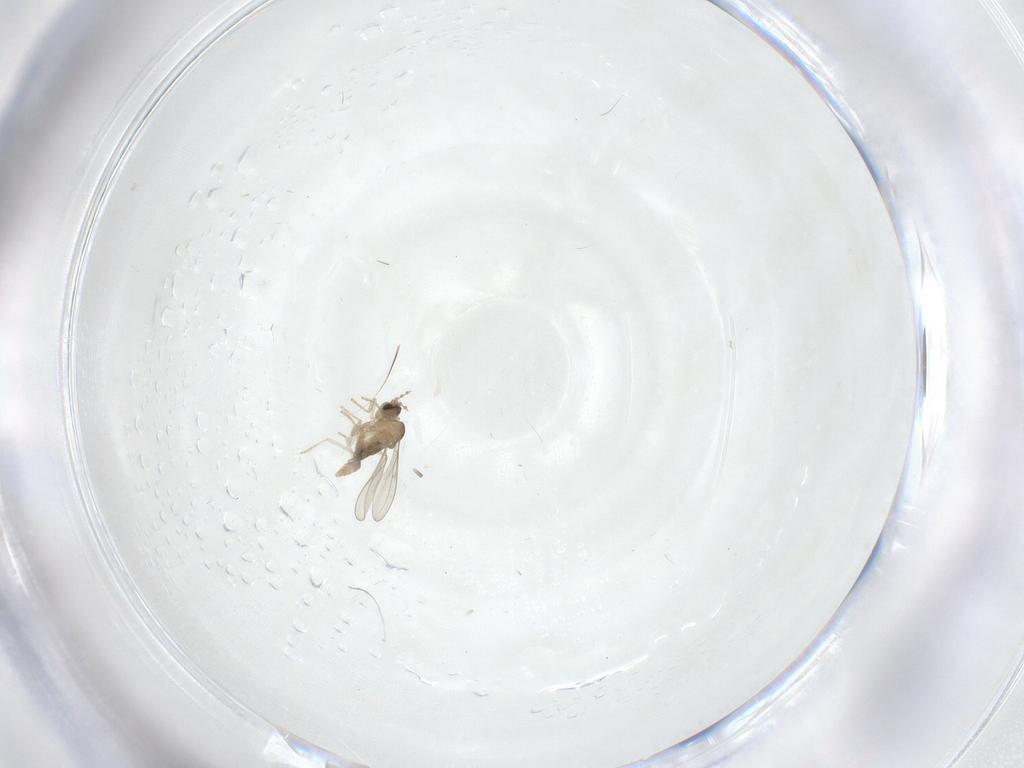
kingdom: Animalia
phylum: Arthropoda
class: Insecta
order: Diptera
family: Cecidomyiidae
